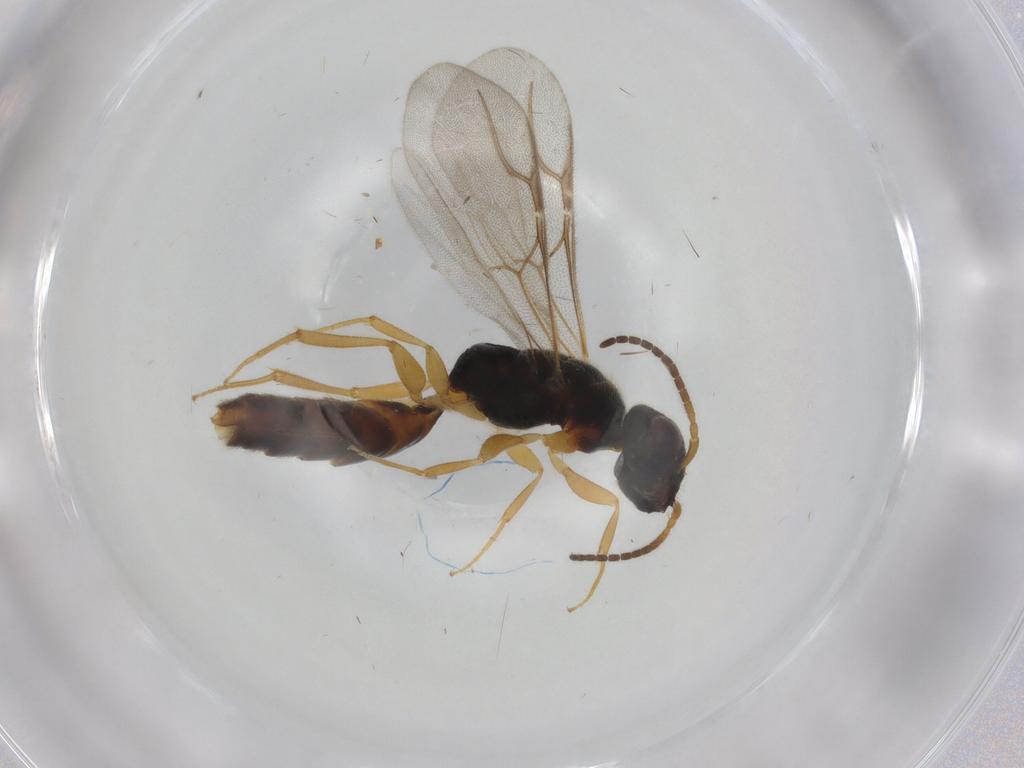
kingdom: Animalia
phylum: Arthropoda
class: Insecta
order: Hymenoptera
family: Bethylidae
